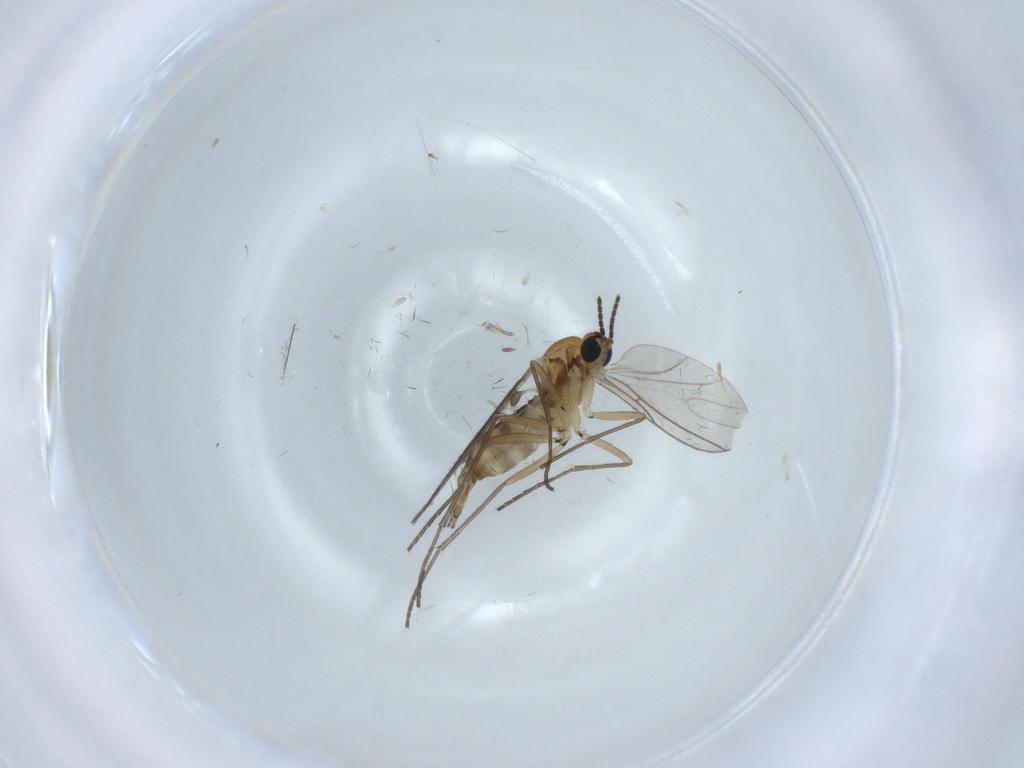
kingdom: Animalia
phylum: Arthropoda
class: Insecta
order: Diptera
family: Sciaridae
